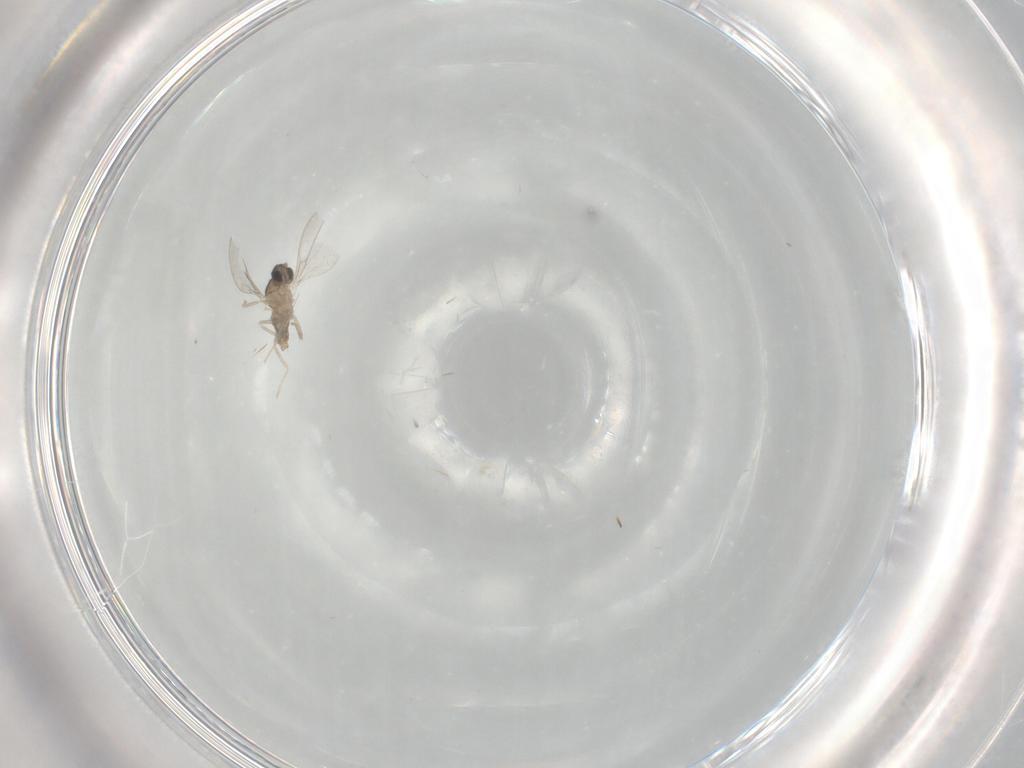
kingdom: Animalia
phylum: Arthropoda
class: Insecta
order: Diptera
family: Cecidomyiidae
